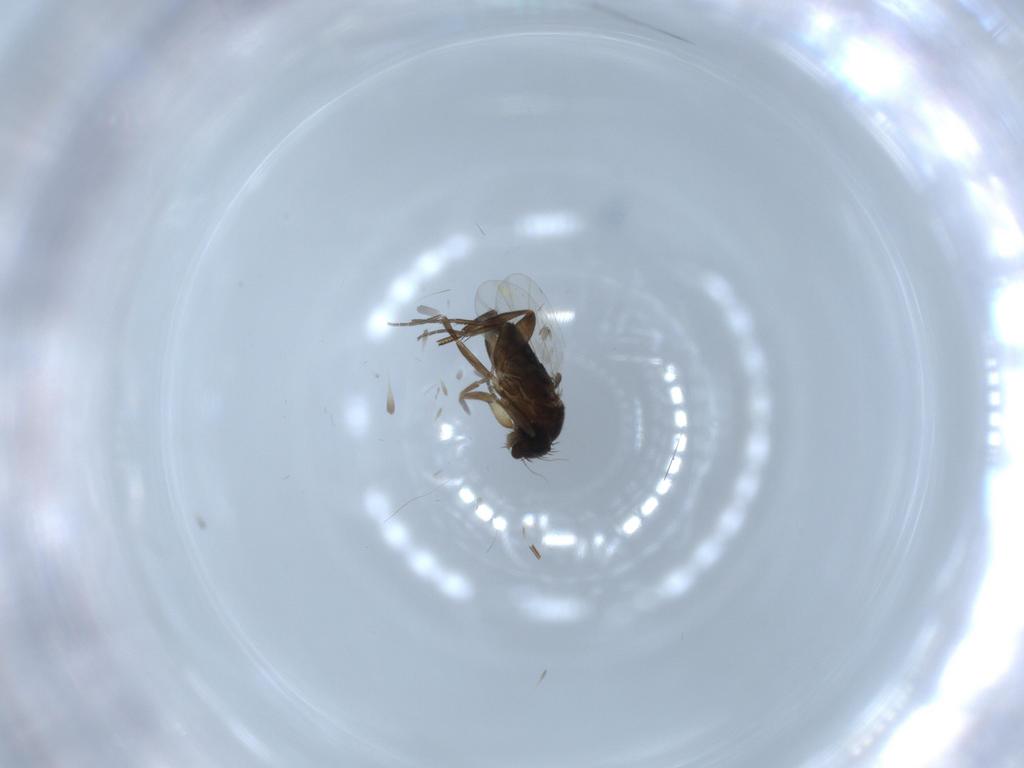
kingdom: Animalia
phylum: Arthropoda
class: Insecta
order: Diptera
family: Phoridae
